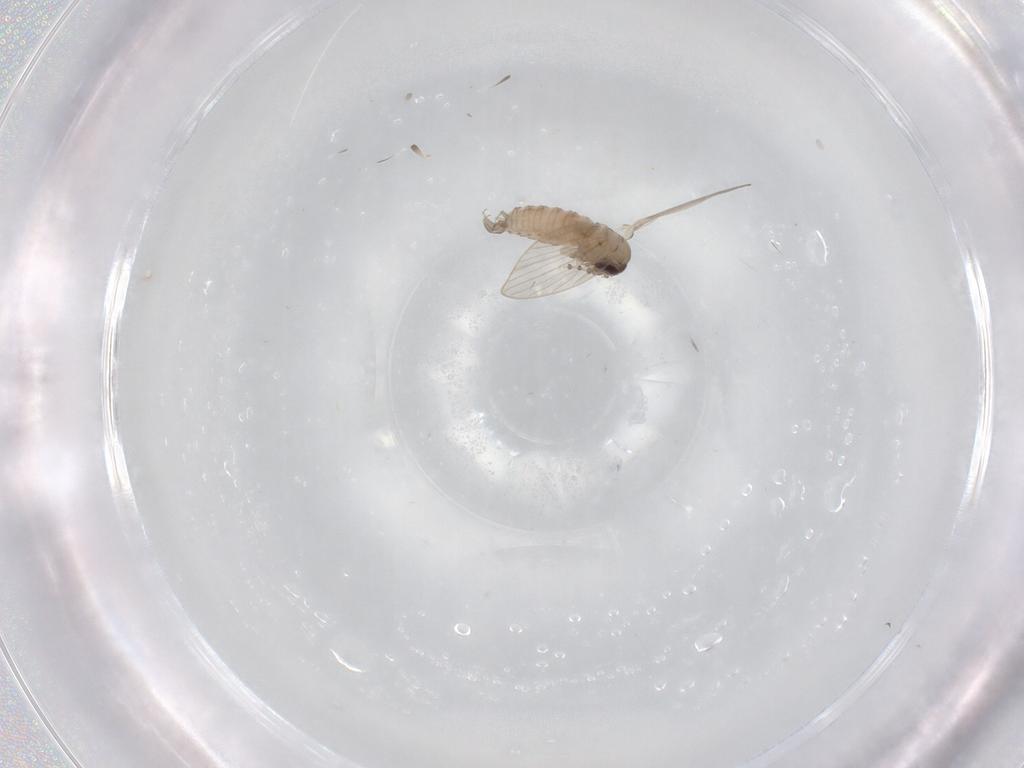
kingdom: Animalia
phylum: Arthropoda
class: Insecta
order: Diptera
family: Psychodidae
